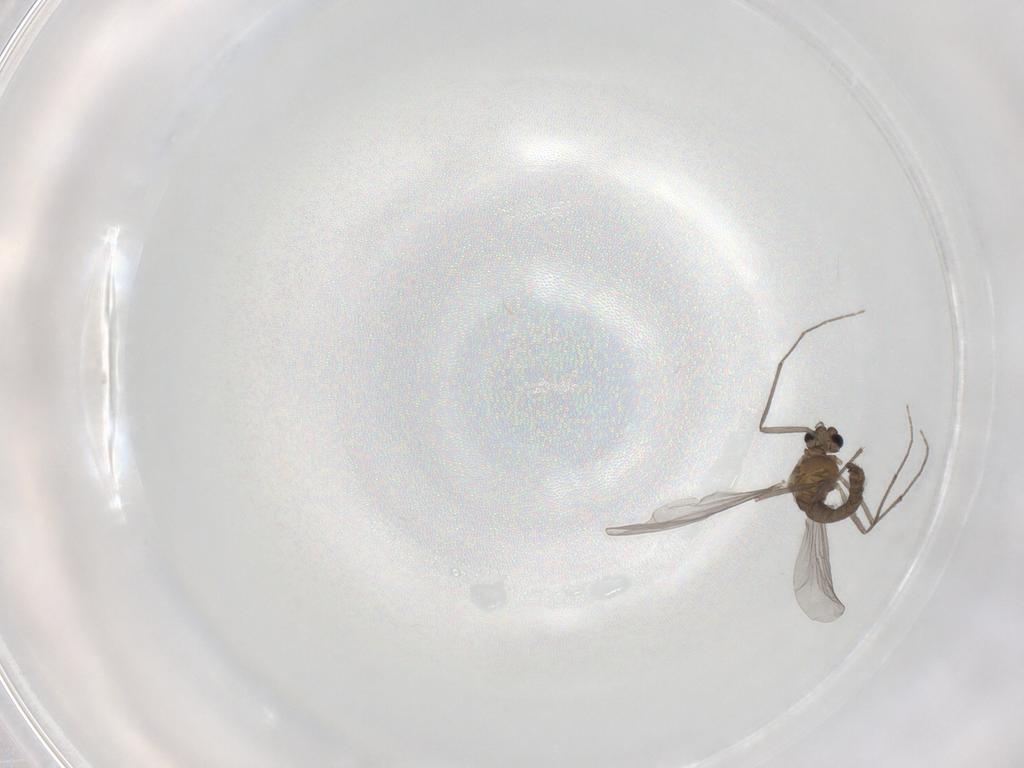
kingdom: Animalia
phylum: Arthropoda
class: Insecta
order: Diptera
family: Chironomidae
